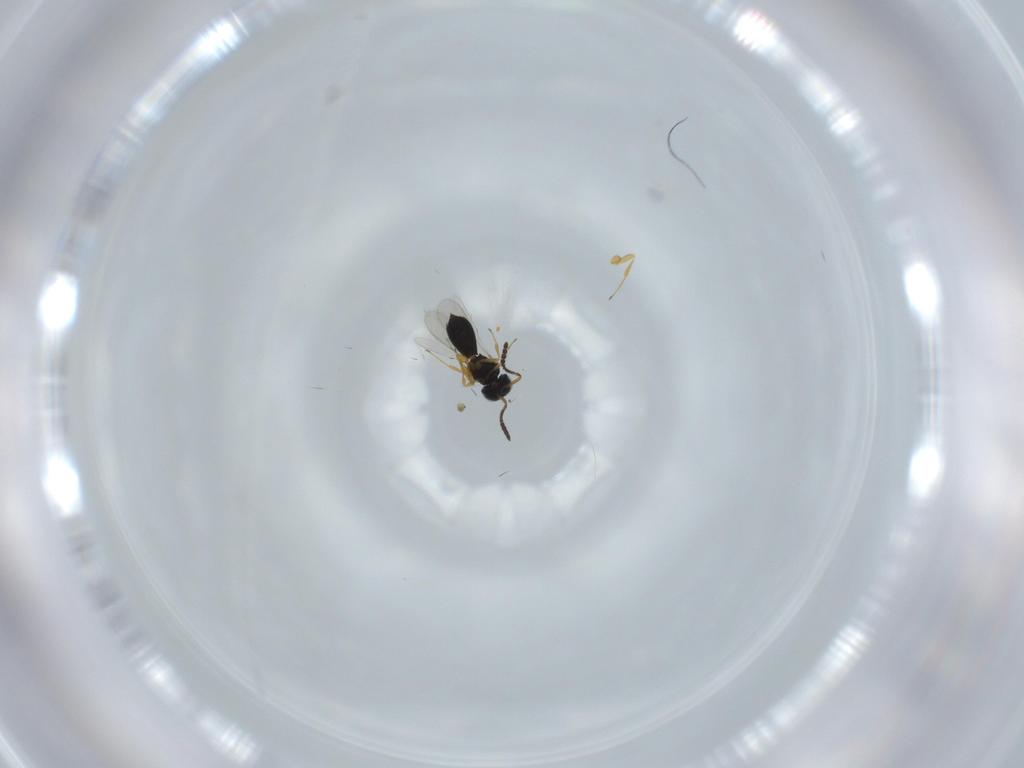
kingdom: Animalia
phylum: Arthropoda
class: Insecta
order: Hymenoptera
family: Scelionidae
